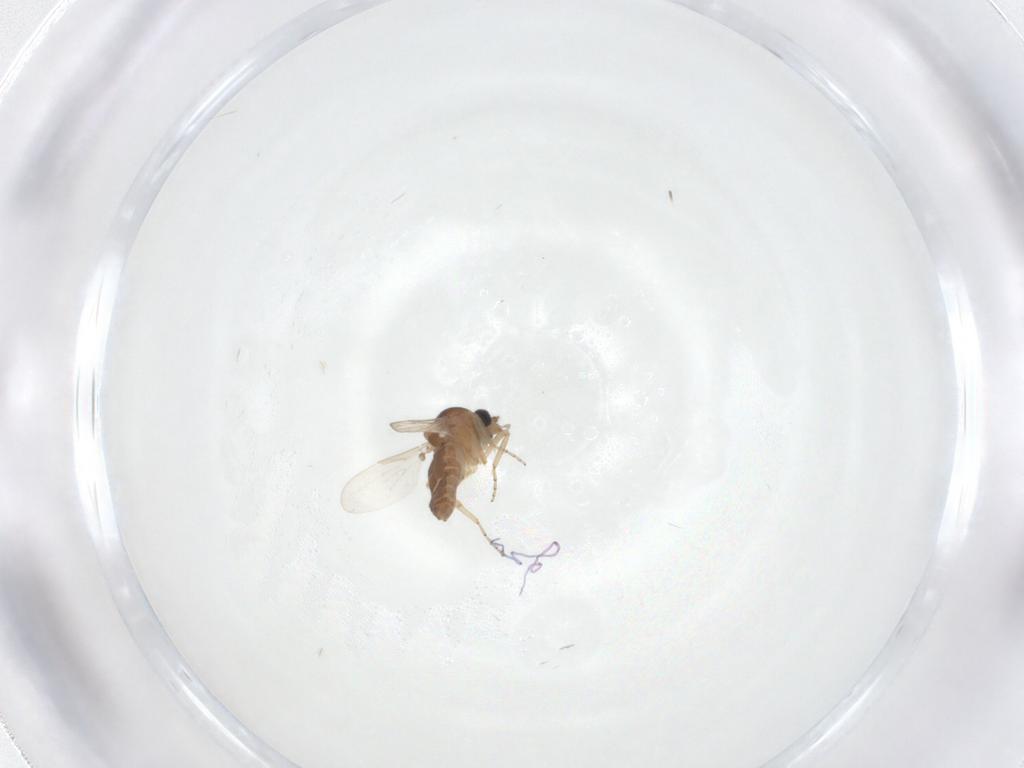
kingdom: Animalia
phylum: Arthropoda
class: Insecta
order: Diptera
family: Ceratopogonidae
